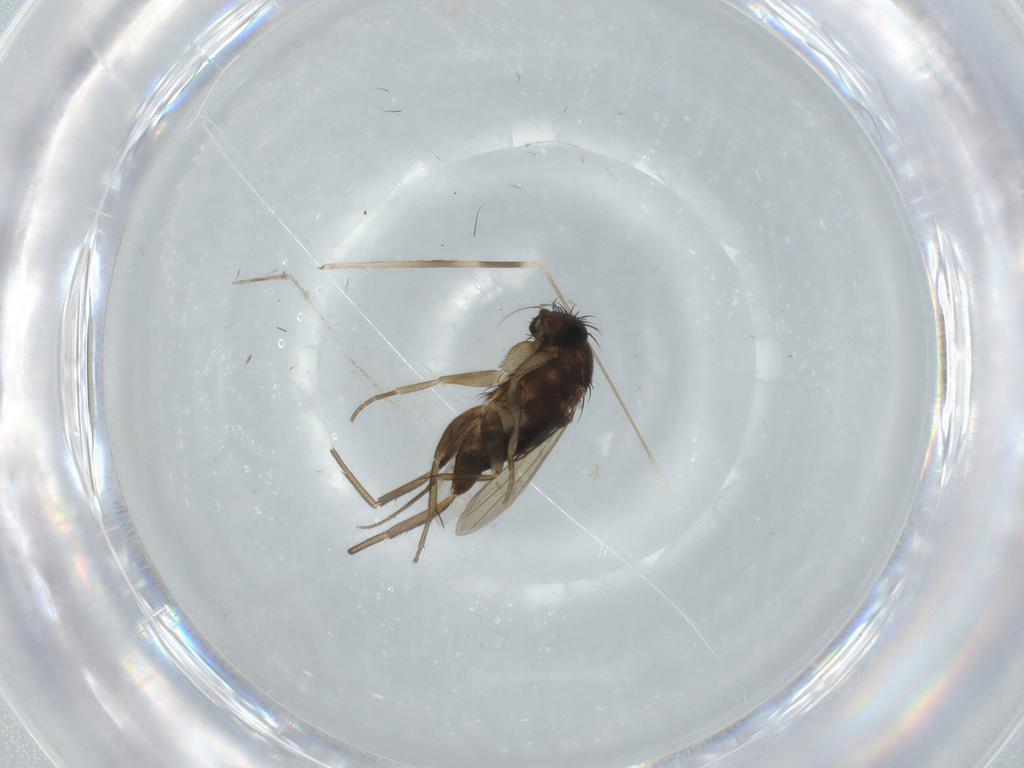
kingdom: Animalia
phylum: Arthropoda
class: Insecta
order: Diptera
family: Phoridae
